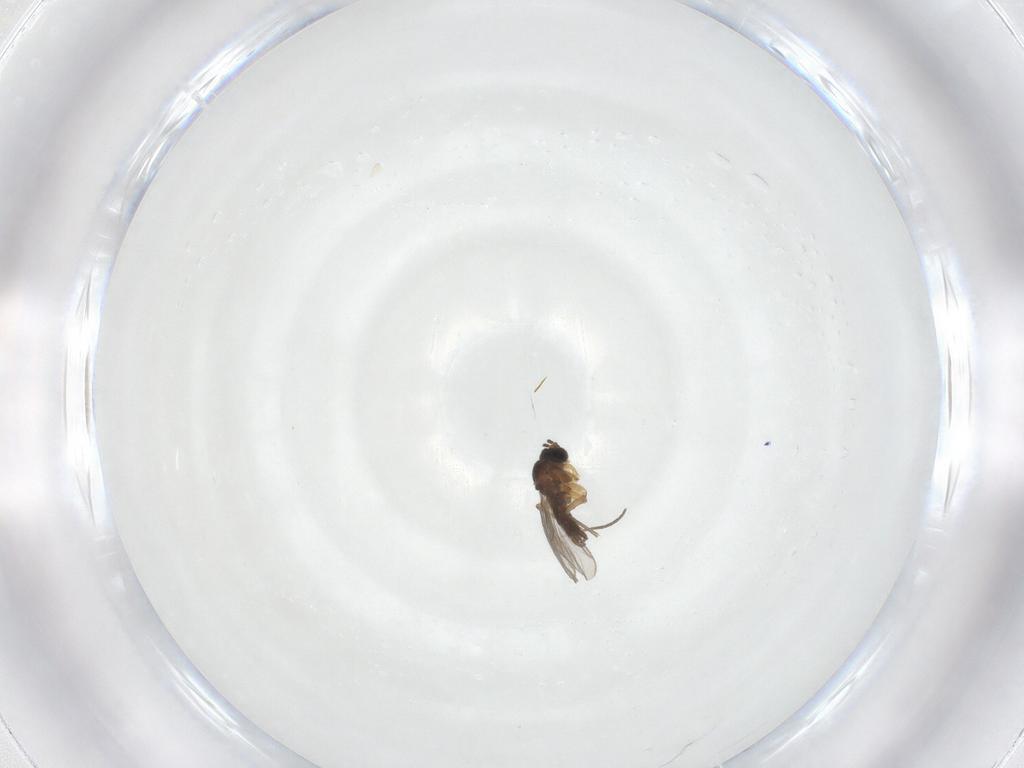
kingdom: Animalia
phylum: Arthropoda
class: Insecta
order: Diptera
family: Sciaridae
